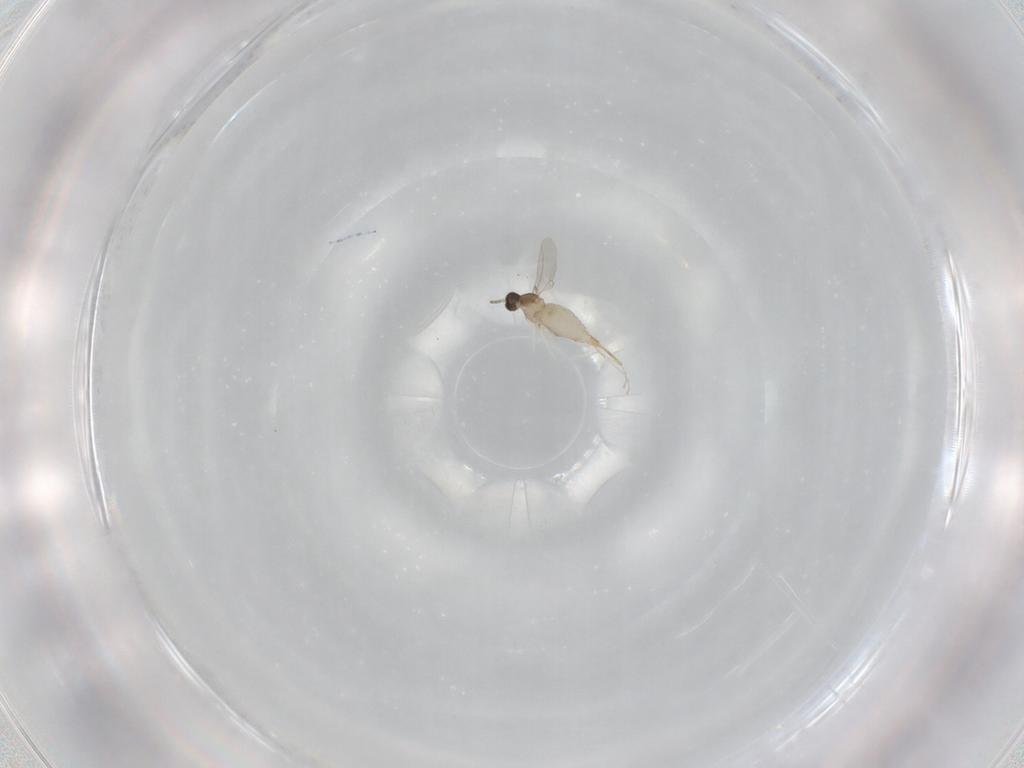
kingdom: Animalia
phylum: Arthropoda
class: Insecta
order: Diptera
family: Cecidomyiidae
